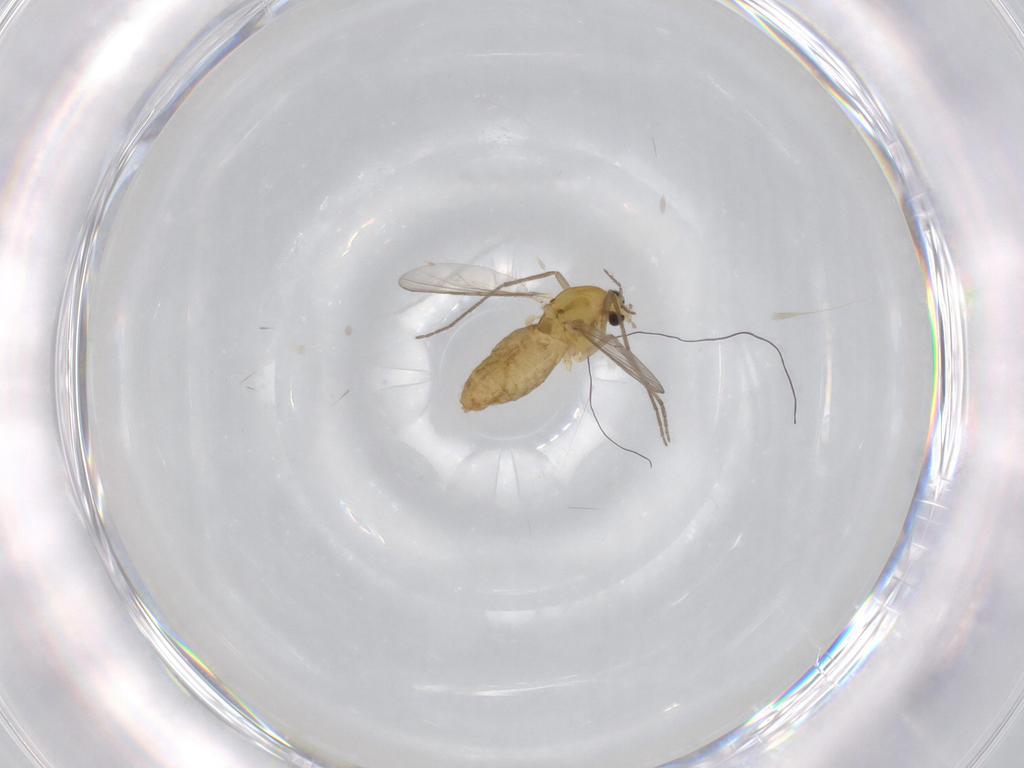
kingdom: Animalia
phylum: Arthropoda
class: Insecta
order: Diptera
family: Chironomidae
